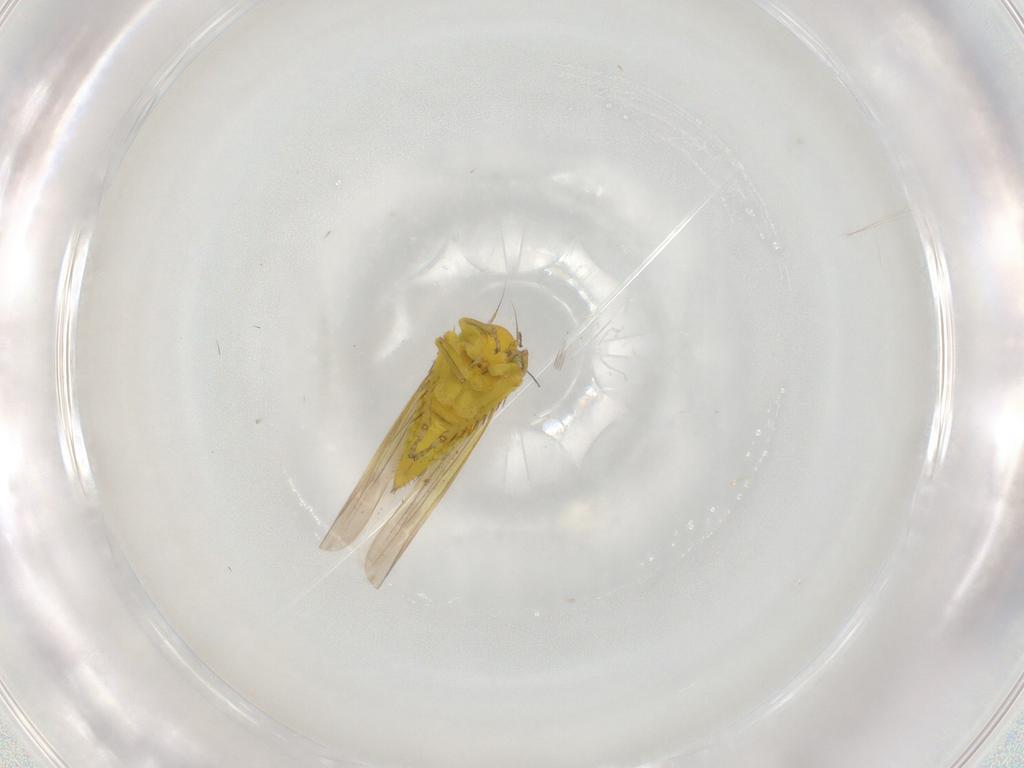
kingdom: Animalia
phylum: Arthropoda
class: Insecta
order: Hemiptera
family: Cicadellidae
